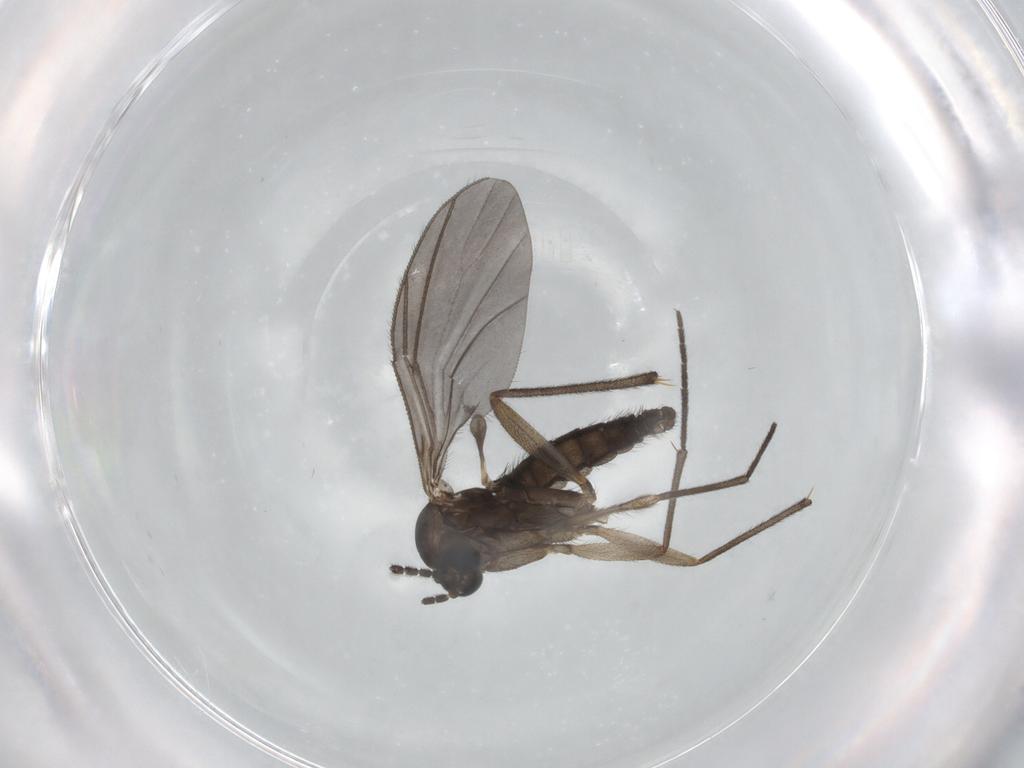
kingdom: Animalia
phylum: Arthropoda
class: Insecta
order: Diptera
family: Sciaridae
